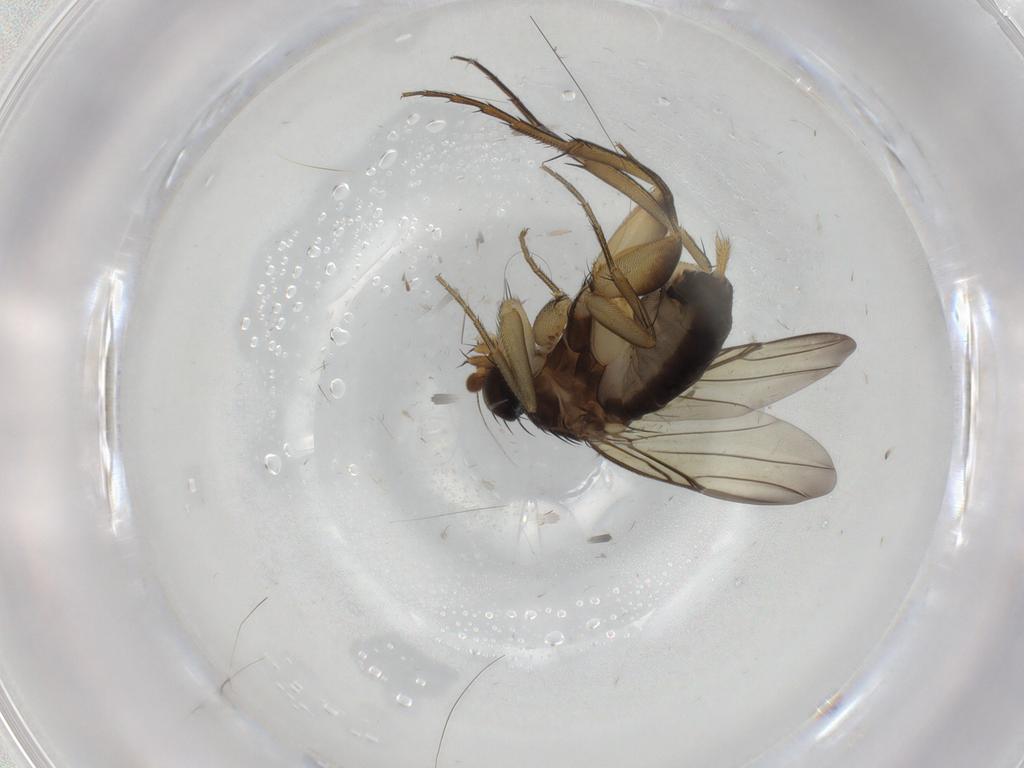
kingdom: Animalia
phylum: Arthropoda
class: Insecta
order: Diptera
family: Phoridae
